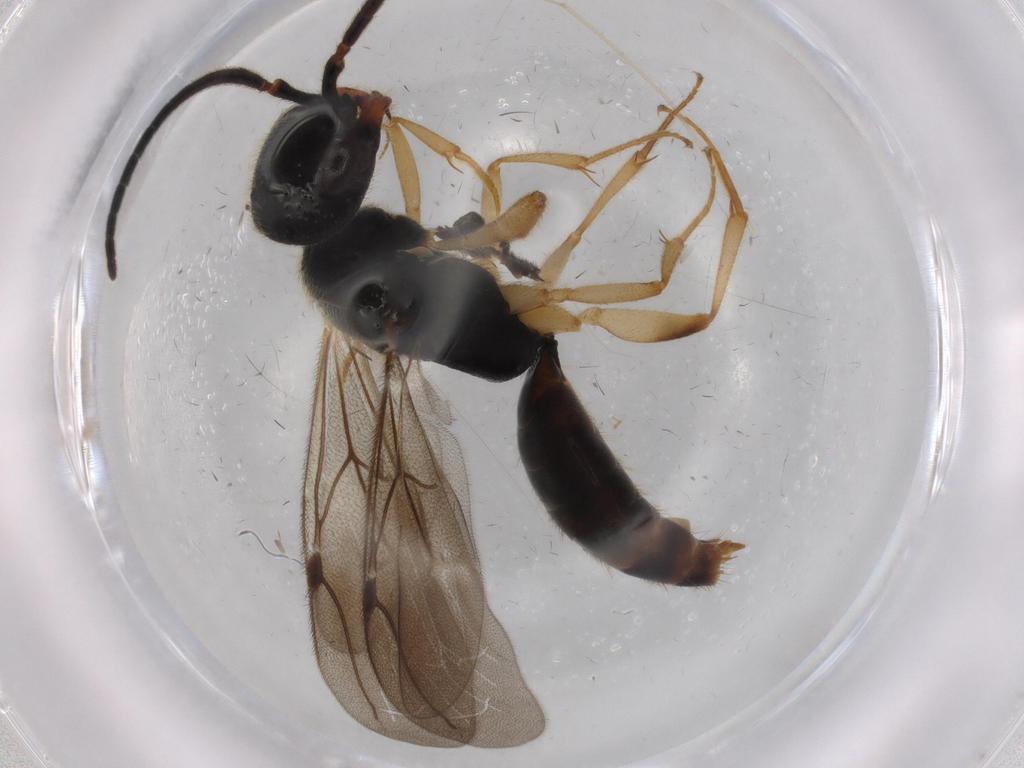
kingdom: Animalia
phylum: Arthropoda
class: Insecta
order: Hymenoptera
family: Bethylidae
